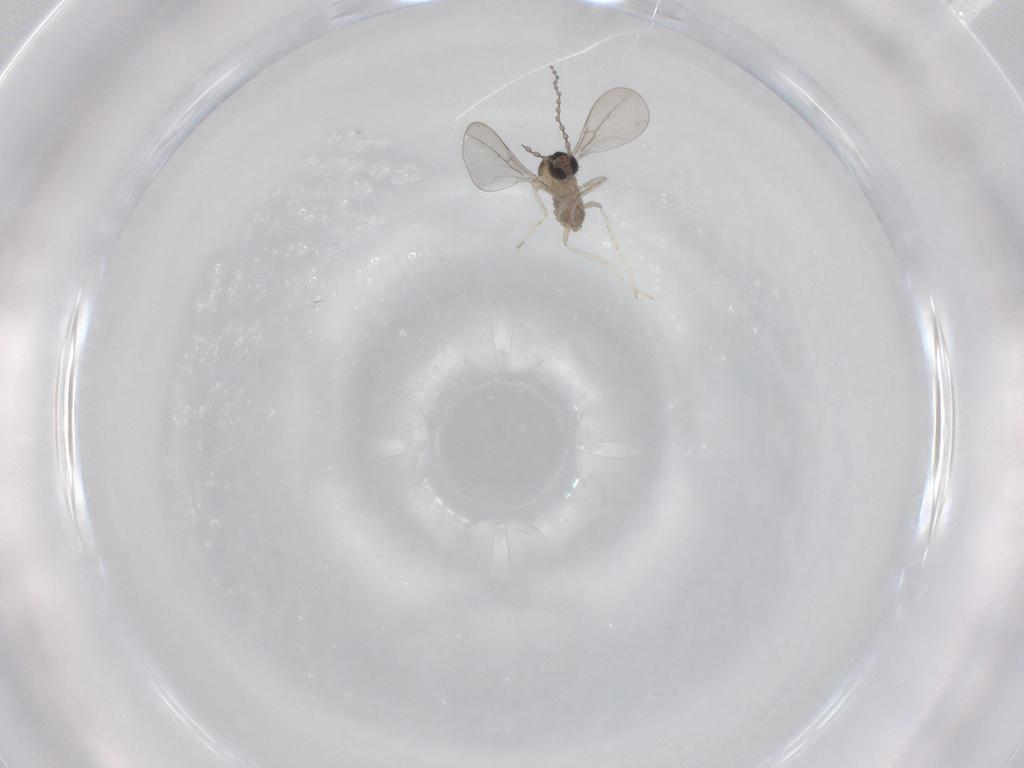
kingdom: Animalia
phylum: Arthropoda
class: Insecta
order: Diptera
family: Cecidomyiidae
